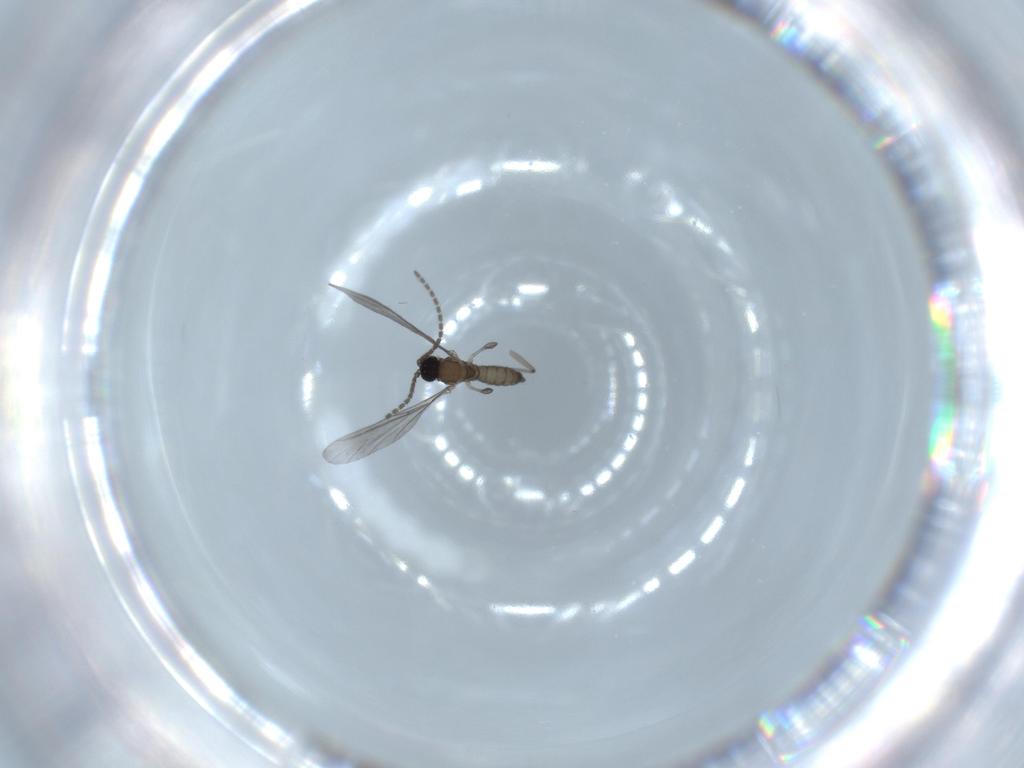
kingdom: Animalia
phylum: Arthropoda
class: Insecta
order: Diptera
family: Sciaridae
